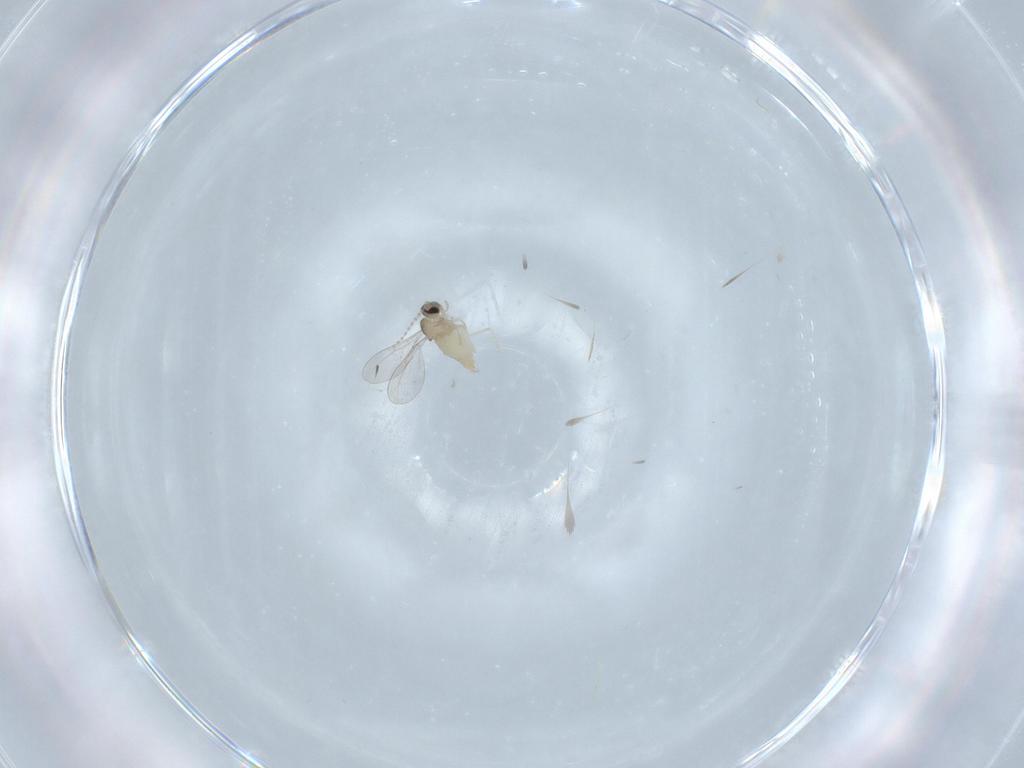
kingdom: Animalia
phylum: Arthropoda
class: Insecta
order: Diptera
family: Cecidomyiidae
